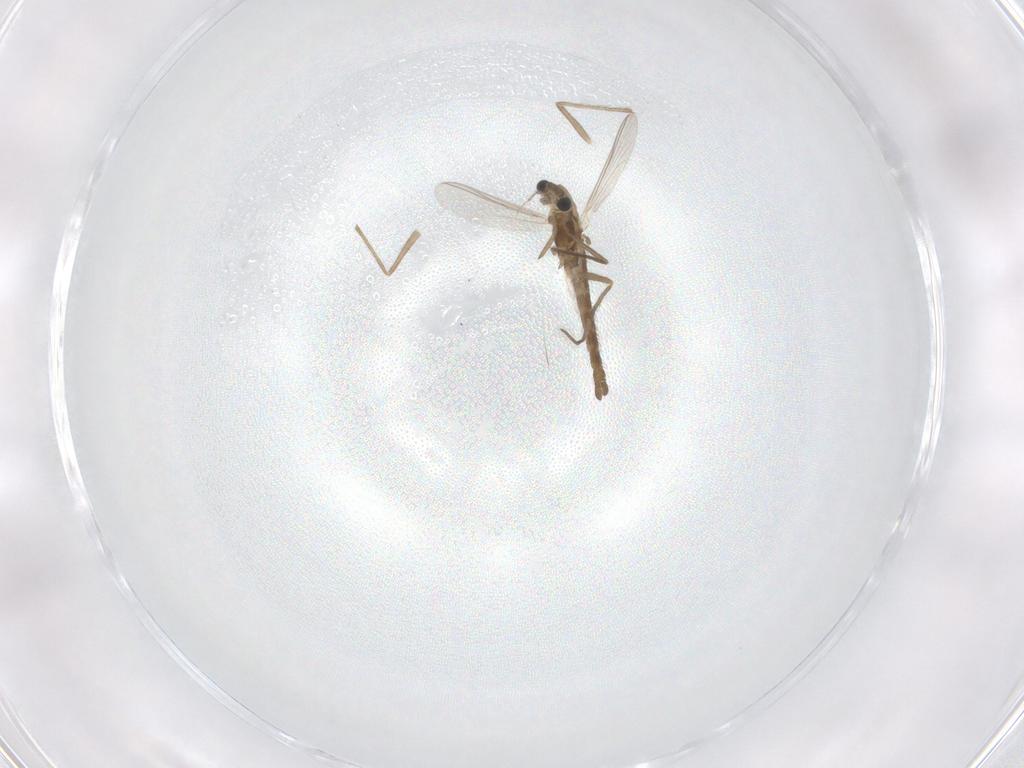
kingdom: Animalia
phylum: Arthropoda
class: Insecta
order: Diptera
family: Chironomidae
